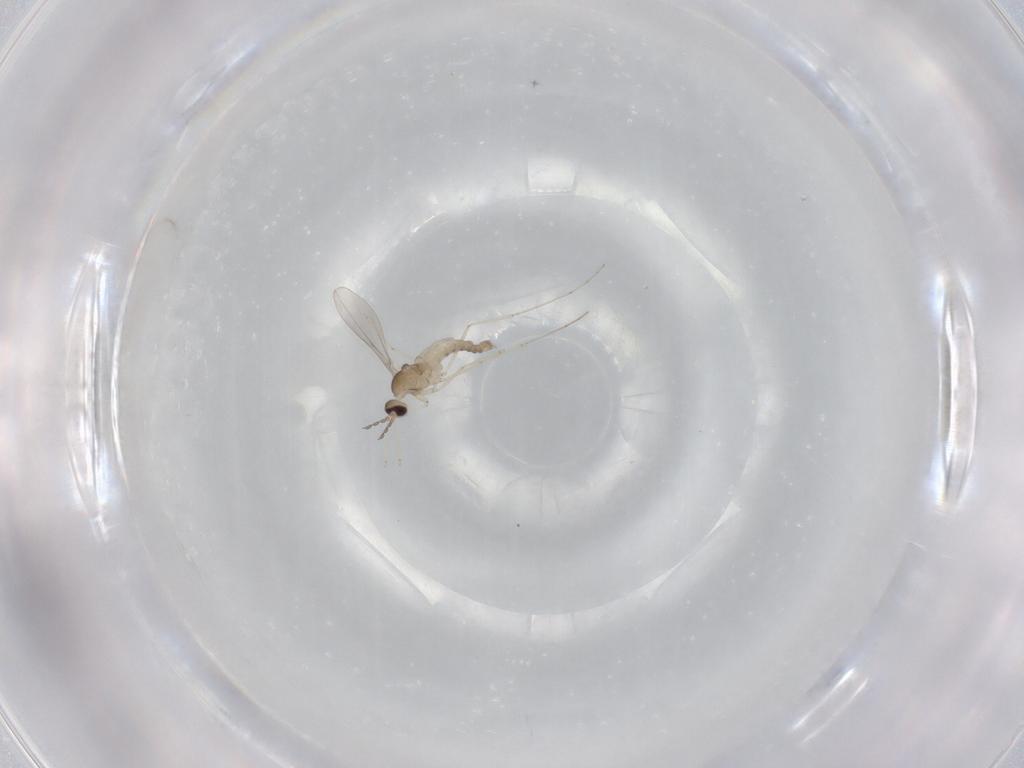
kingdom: Animalia
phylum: Arthropoda
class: Insecta
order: Diptera
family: Cecidomyiidae
